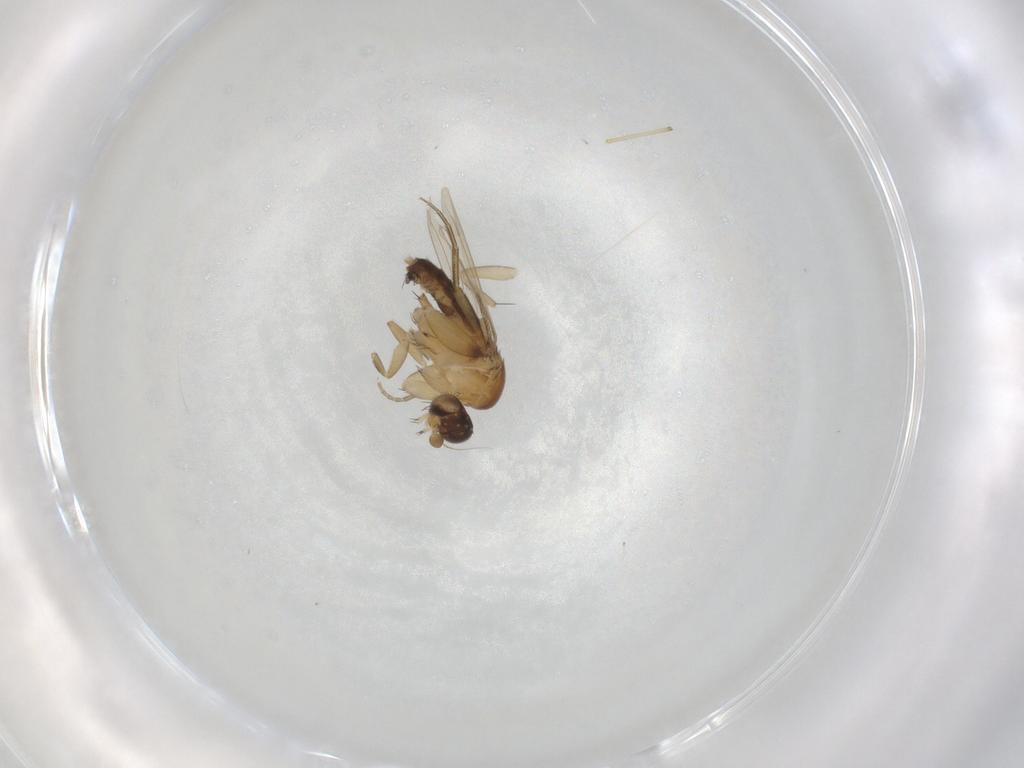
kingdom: Animalia
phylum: Arthropoda
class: Insecta
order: Diptera
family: Phoridae
